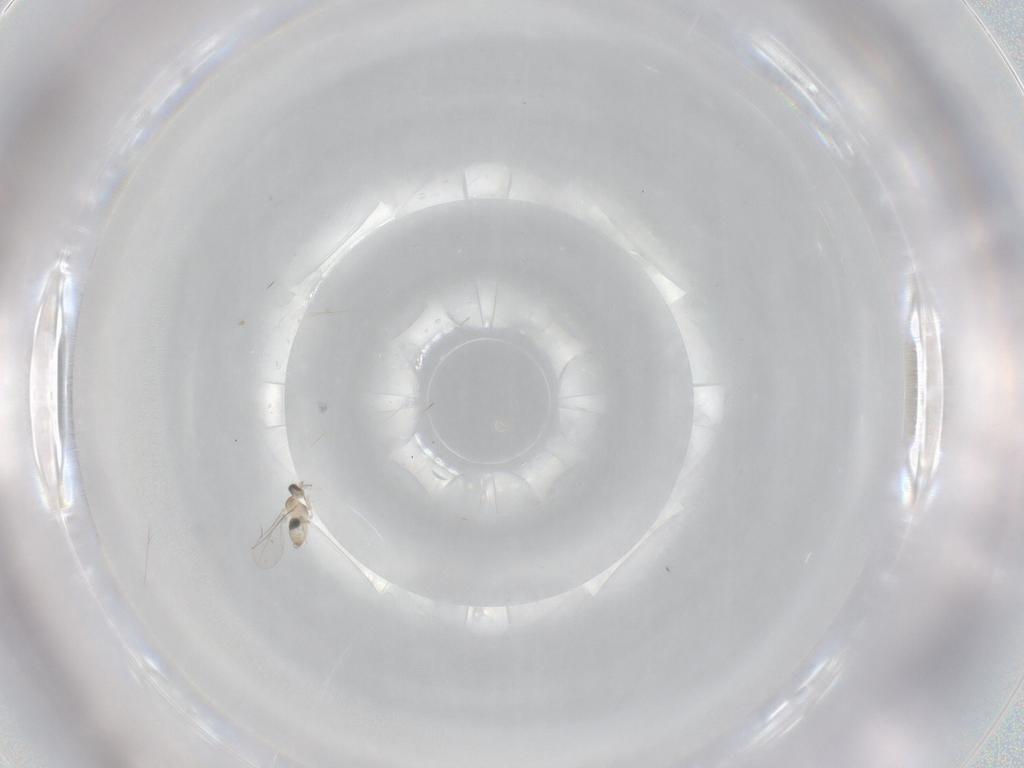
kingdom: Animalia
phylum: Arthropoda
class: Insecta
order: Diptera
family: Cecidomyiidae
